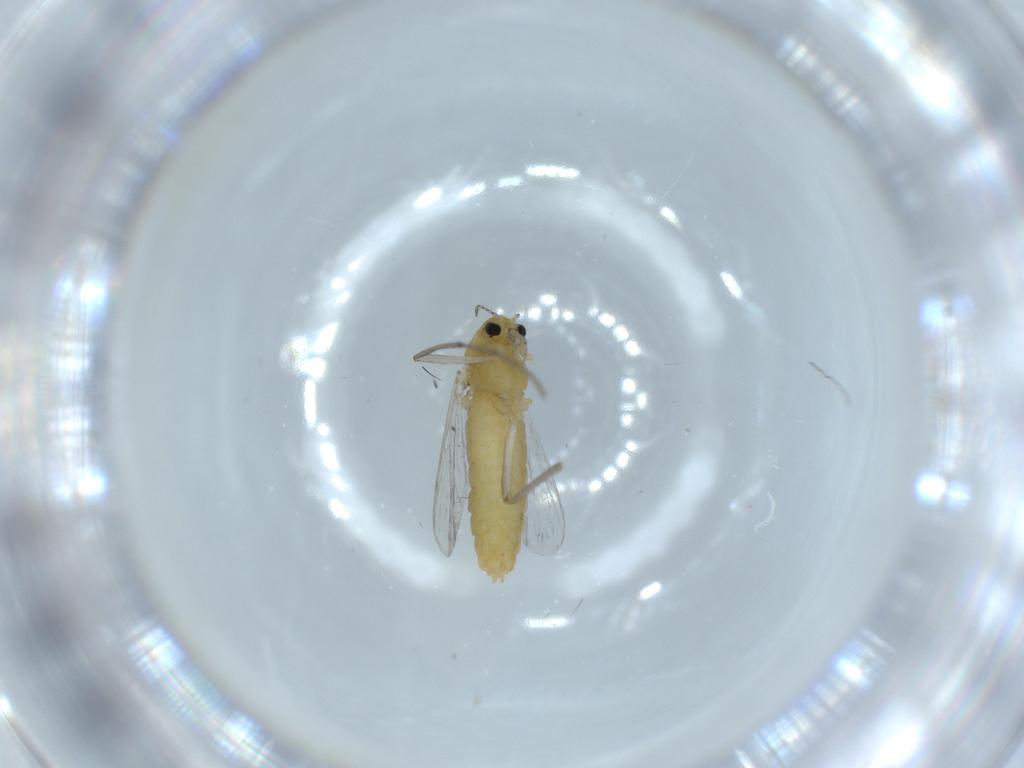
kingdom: Animalia
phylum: Arthropoda
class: Insecta
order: Diptera
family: Chironomidae
